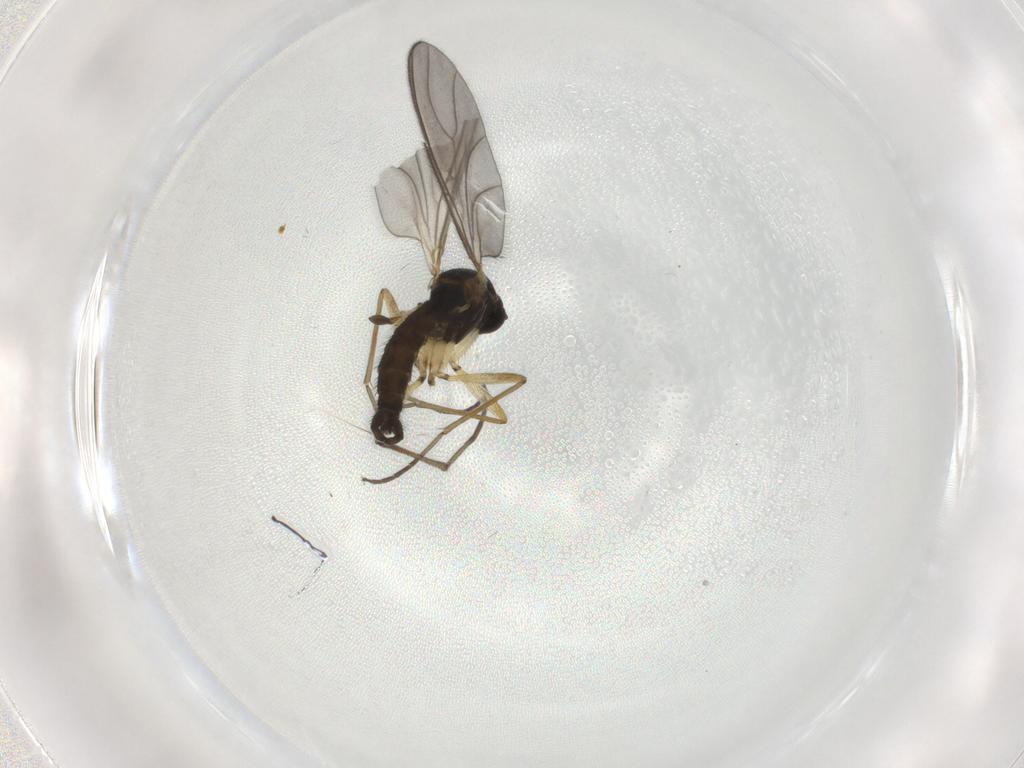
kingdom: Animalia
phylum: Arthropoda
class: Insecta
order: Diptera
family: Sciaridae
